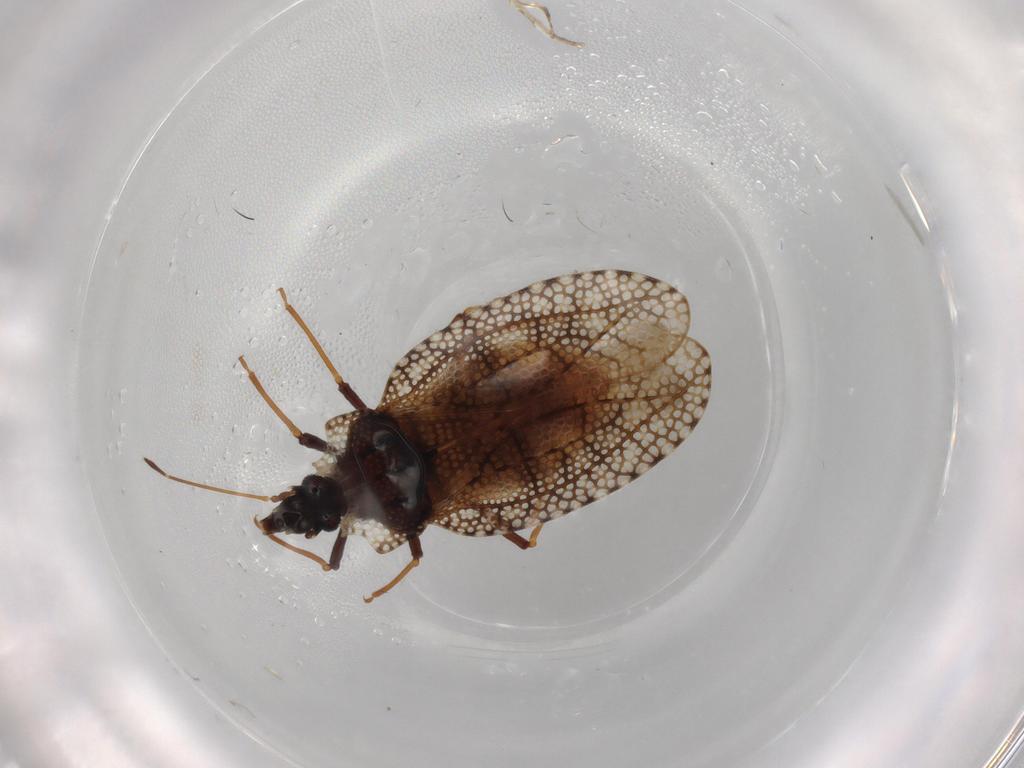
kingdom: Animalia
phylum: Arthropoda
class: Insecta
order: Hemiptera
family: Tingidae
